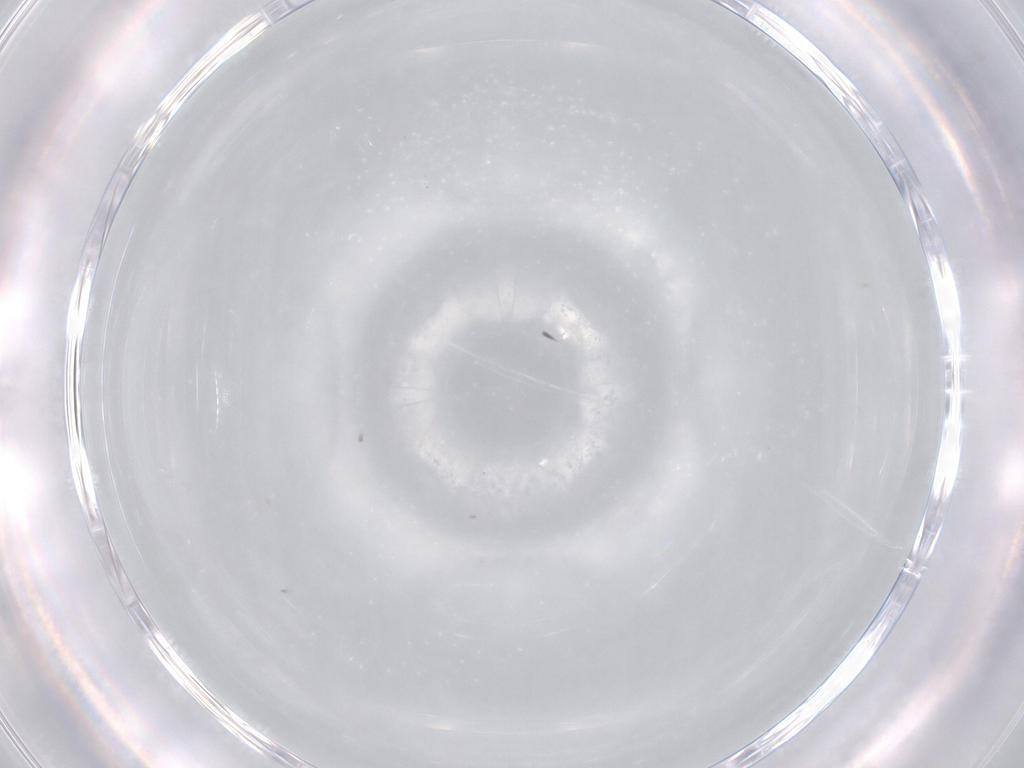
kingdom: Animalia
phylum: Arthropoda
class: Insecta
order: Thysanoptera
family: Phlaeothripidae
